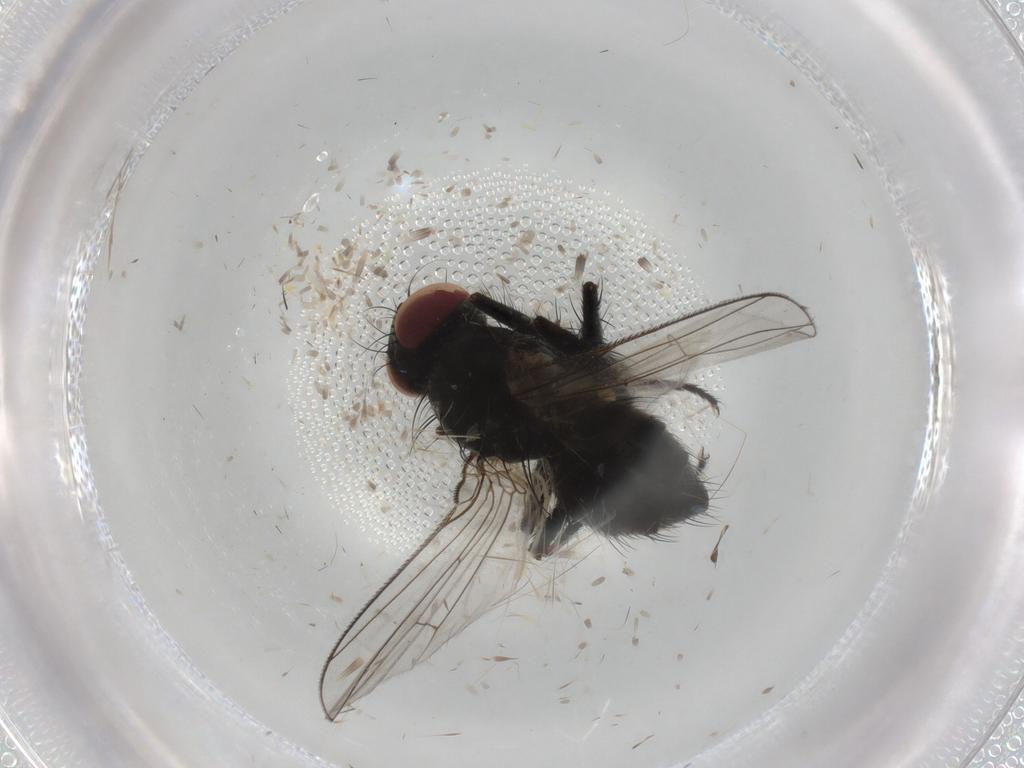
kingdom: Animalia
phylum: Arthropoda
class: Insecta
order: Diptera
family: Muscidae
